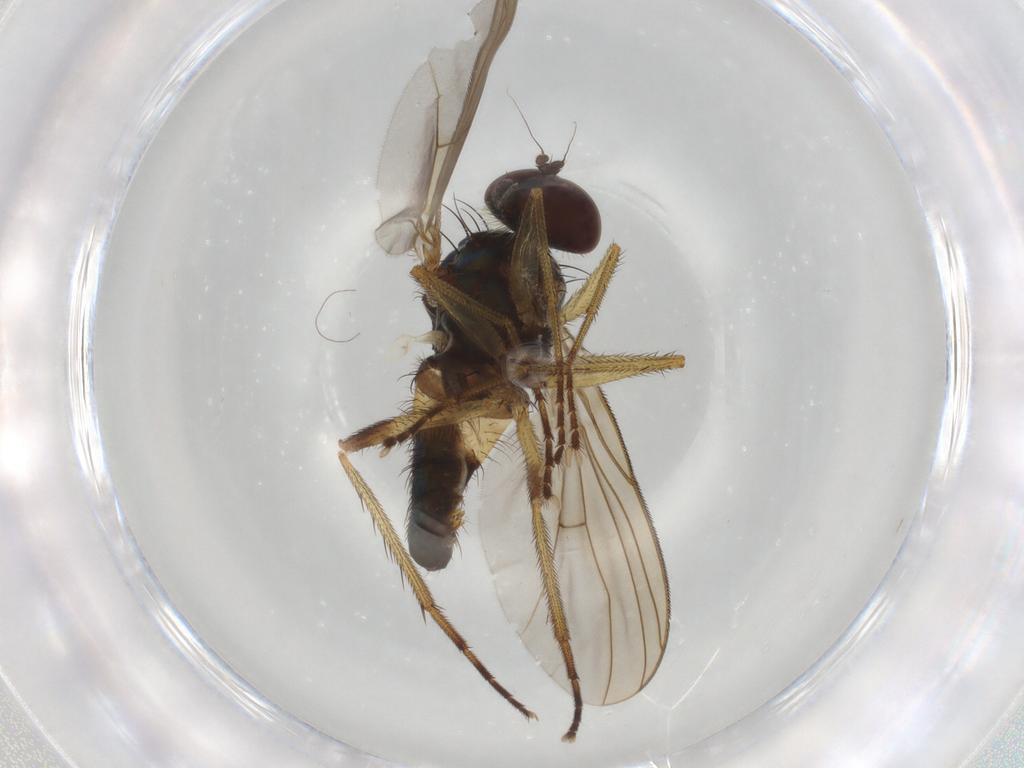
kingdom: Animalia
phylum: Arthropoda
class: Insecta
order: Diptera
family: Dolichopodidae
